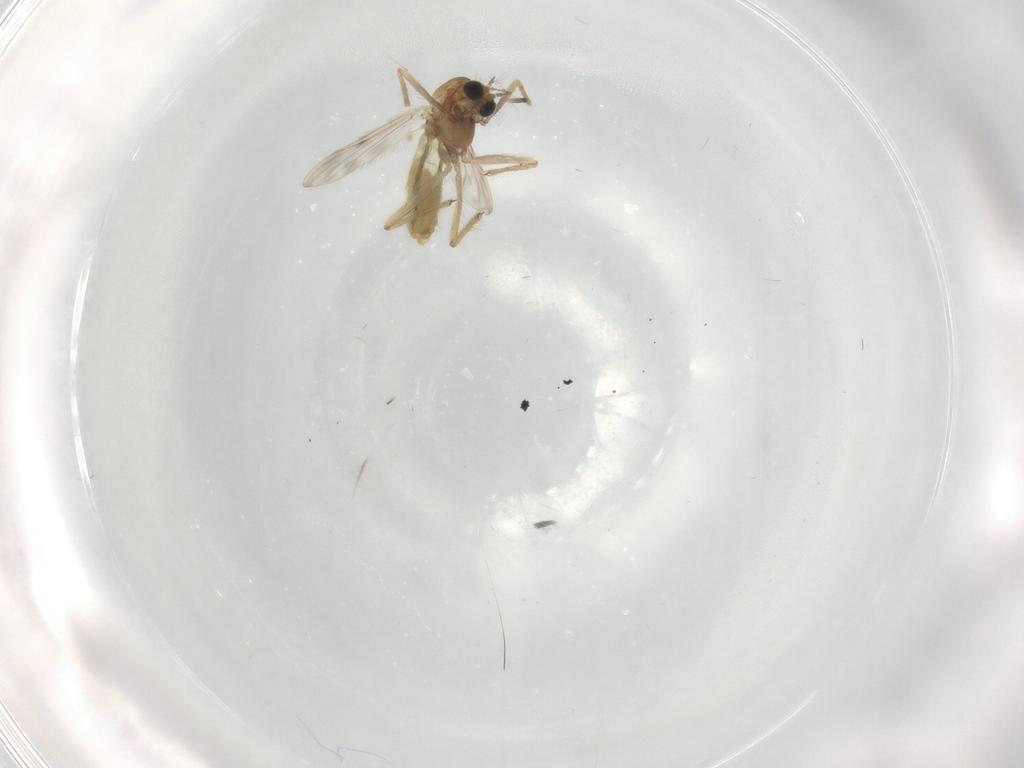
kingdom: Animalia
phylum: Arthropoda
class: Insecta
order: Diptera
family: Chironomidae
